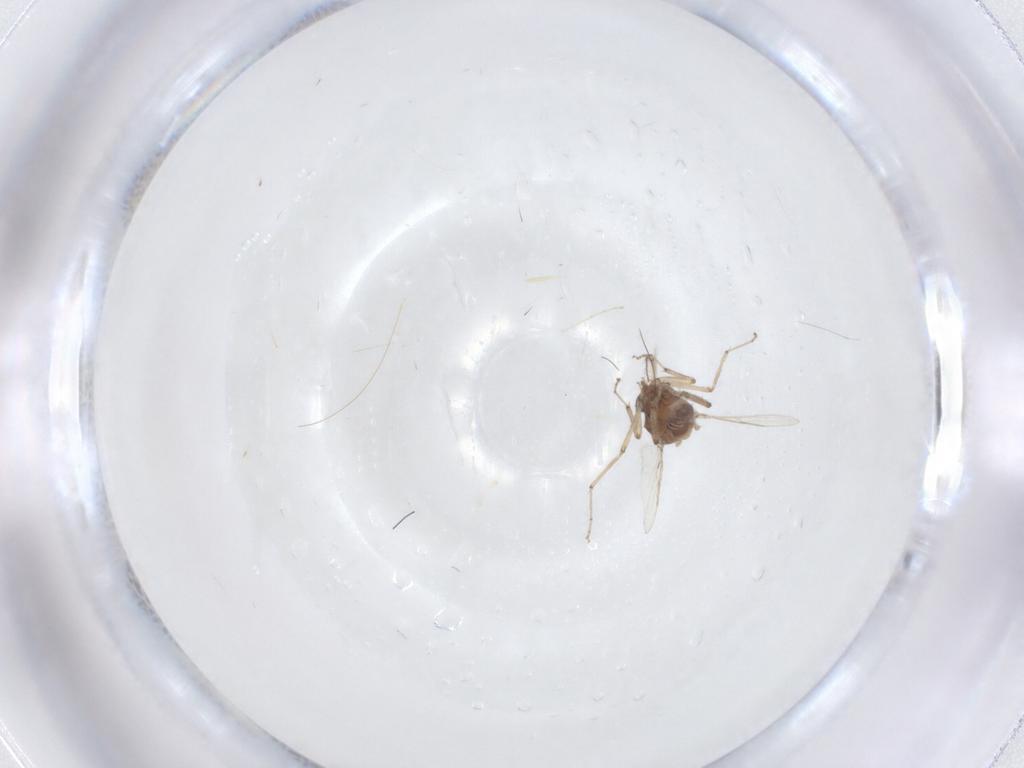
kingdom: Animalia
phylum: Arthropoda
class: Insecta
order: Diptera
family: Ceratopogonidae
